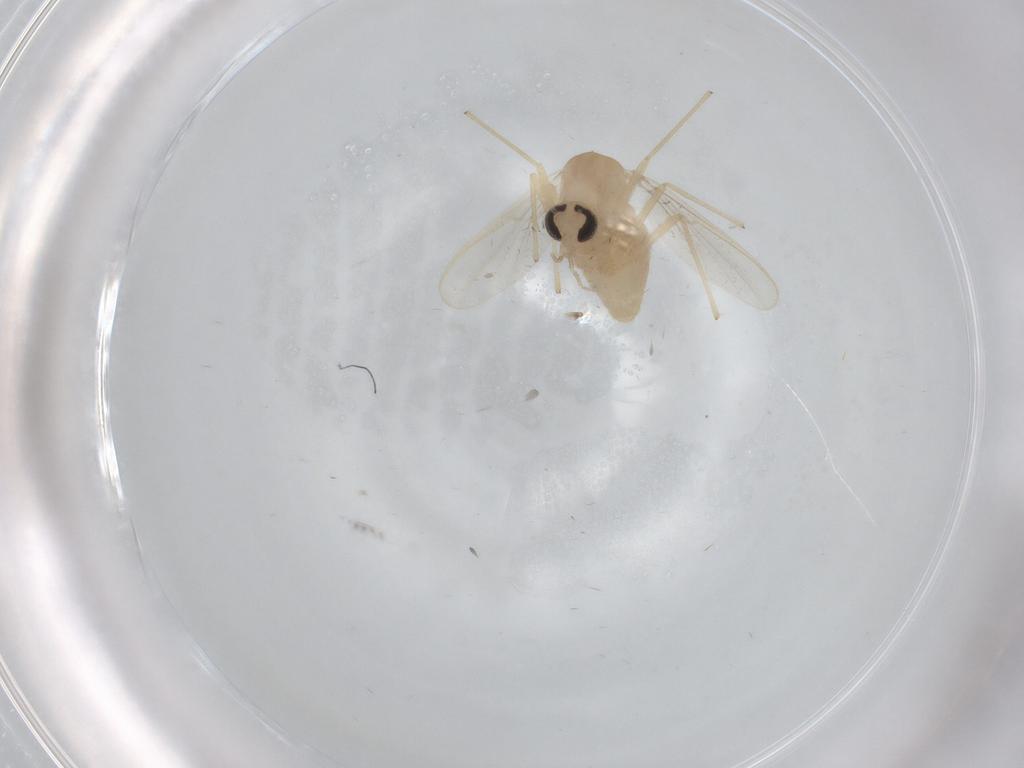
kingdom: Animalia
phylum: Arthropoda
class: Insecta
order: Diptera
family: Chironomidae
